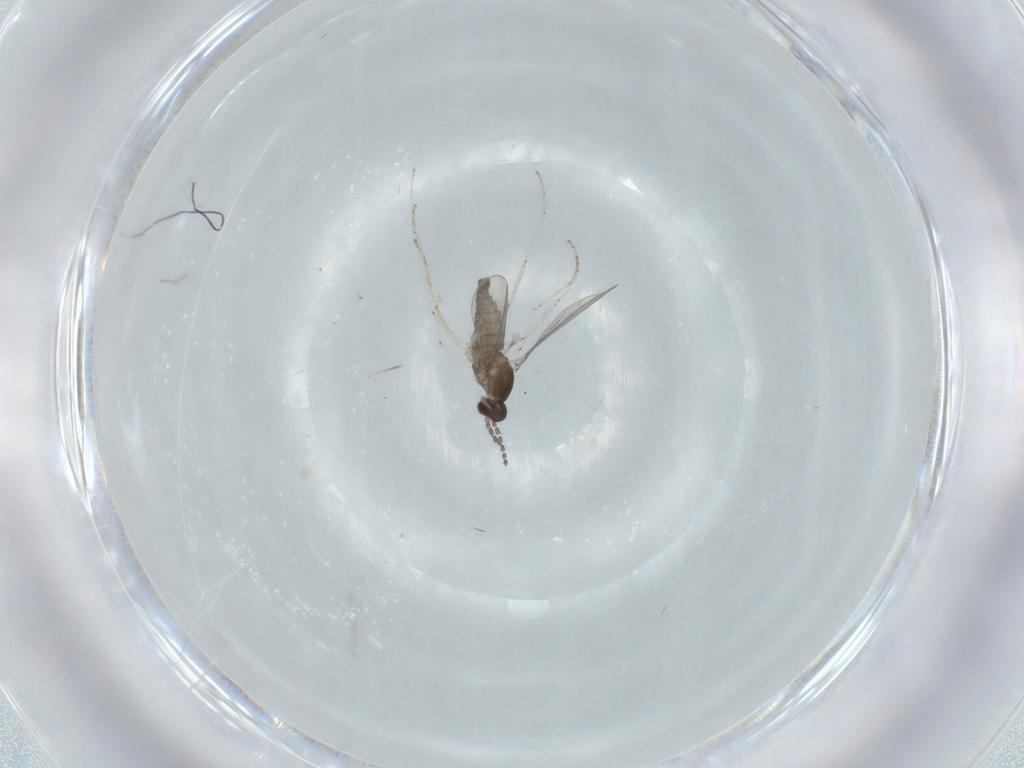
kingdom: Animalia
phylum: Arthropoda
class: Insecta
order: Diptera
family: Cecidomyiidae
